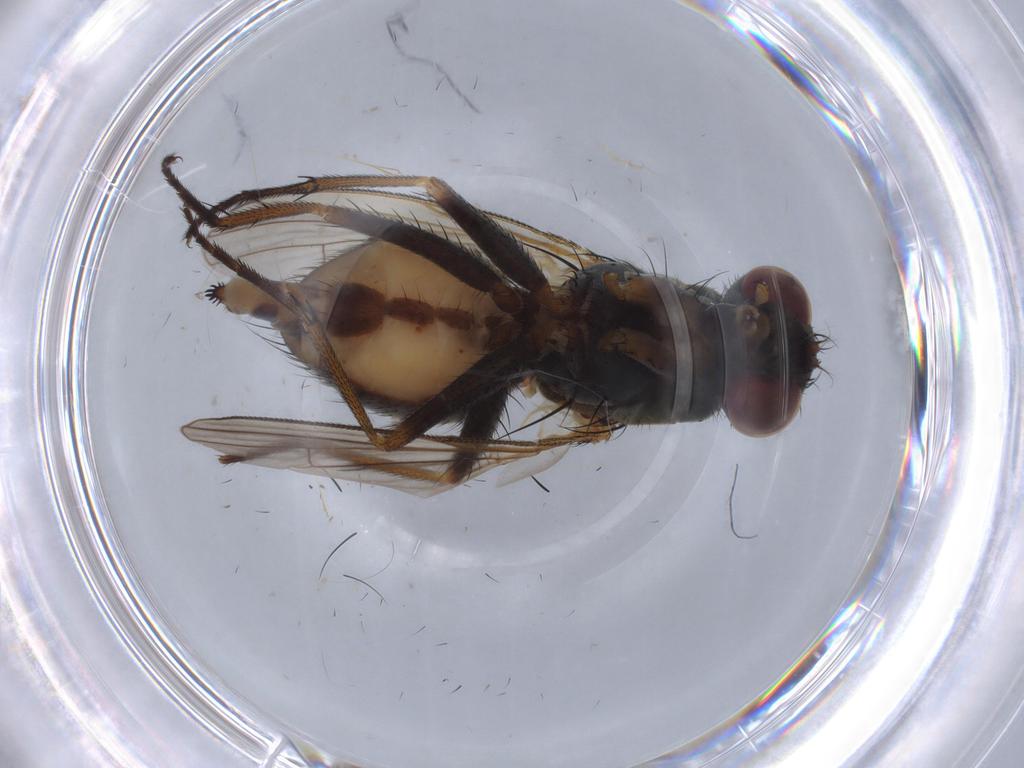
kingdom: Animalia
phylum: Arthropoda
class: Insecta
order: Diptera
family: Muscidae
